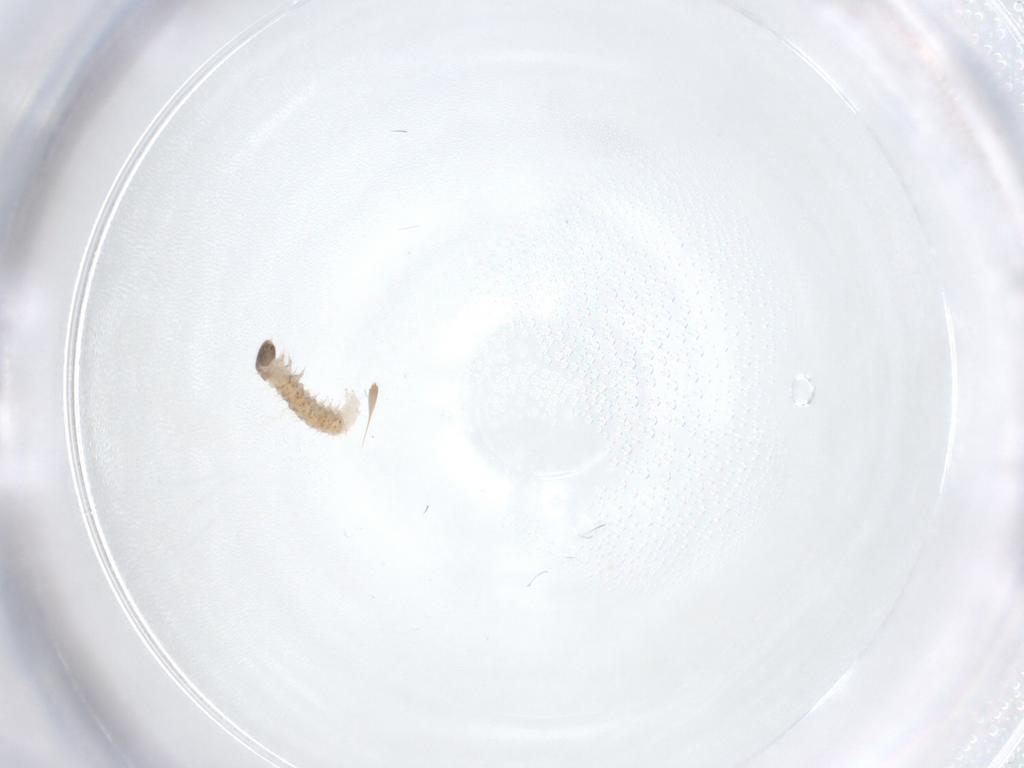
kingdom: Animalia
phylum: Arthropoda
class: Insecta
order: Lepidoptera
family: Crambidae
